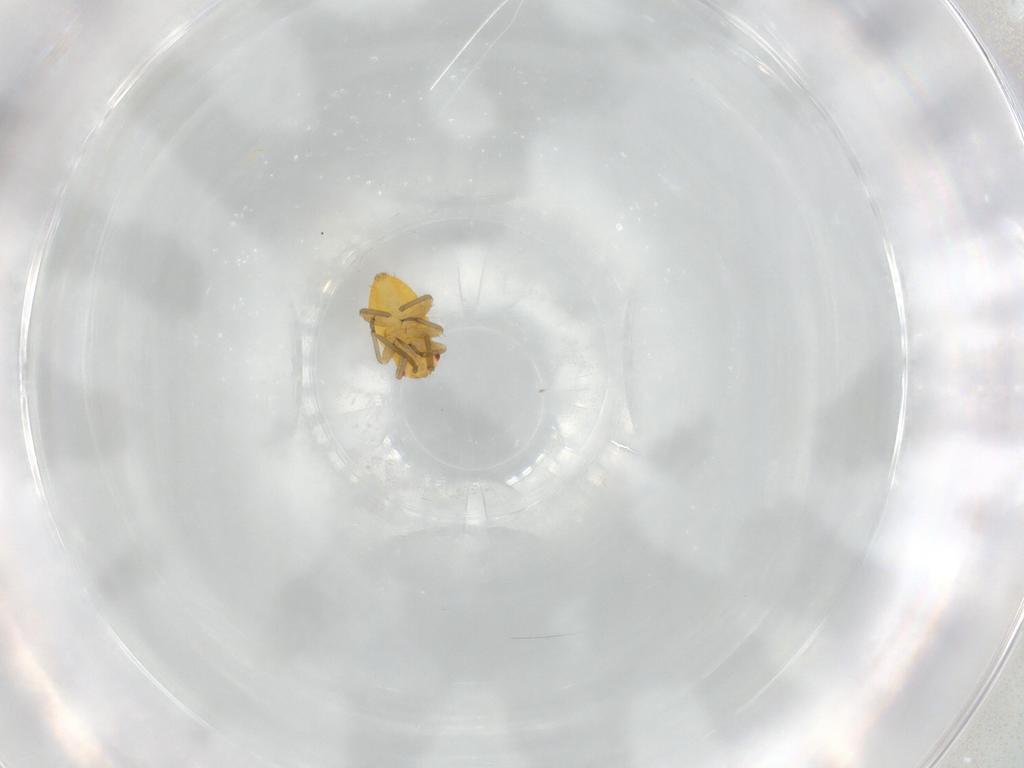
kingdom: Animalia
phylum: Arthropoda
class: Insecta
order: Hemiptera
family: Miridae
